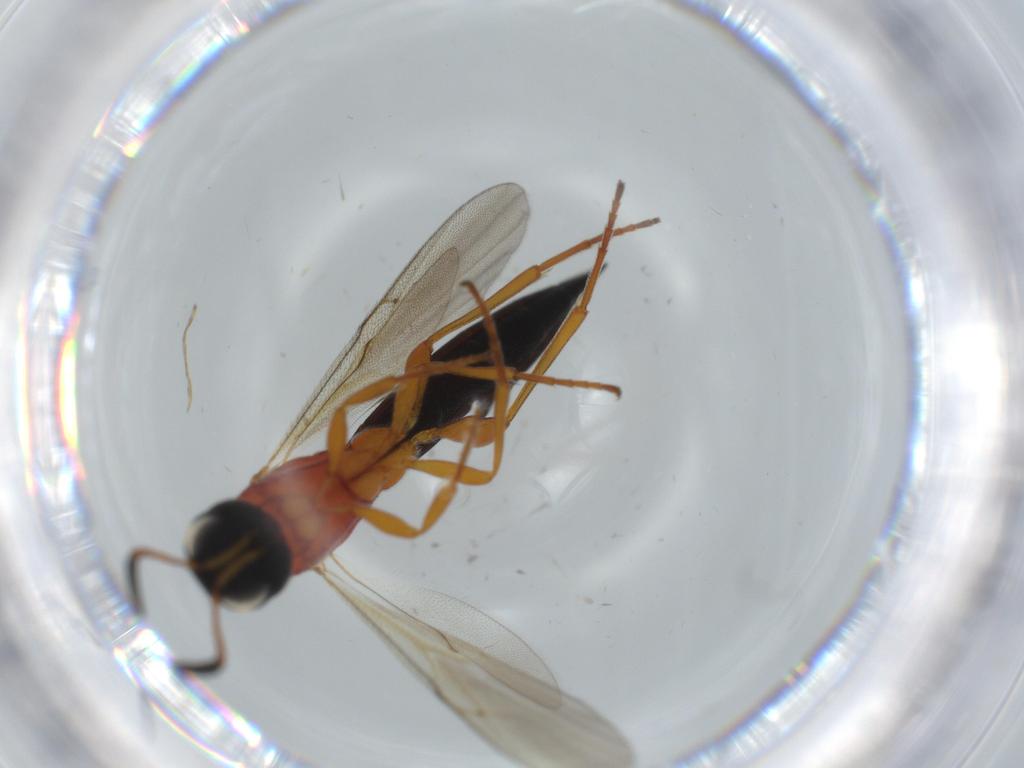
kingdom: Animalia
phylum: Arthropoda
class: Insecta
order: Hymenoptera
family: Scelionidae
